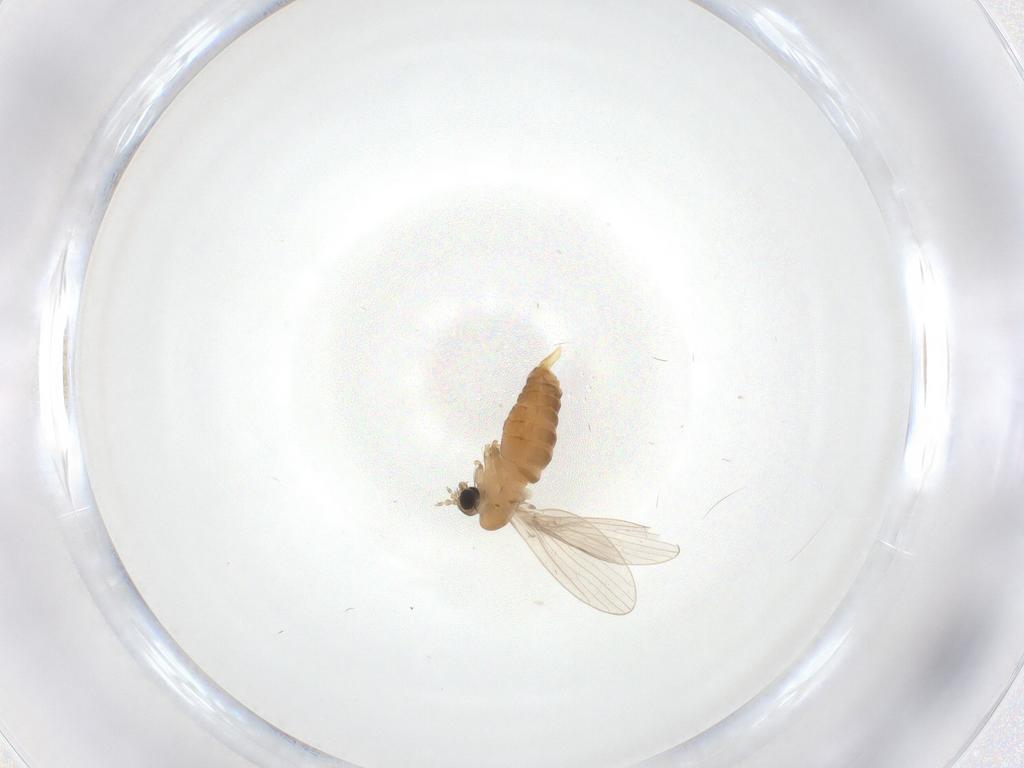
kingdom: Animalia
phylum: Arthropoda
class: Insecta
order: Diptera
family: Psychodidae
